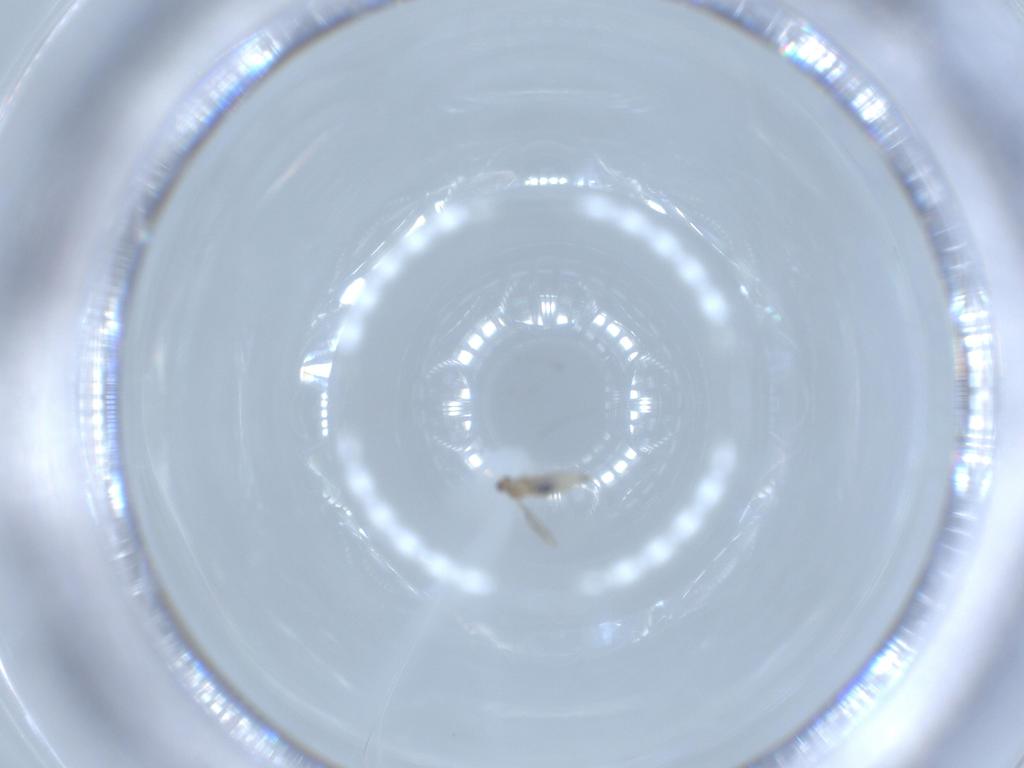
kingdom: Animalia
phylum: Arthropoda
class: Insecta
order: Diptera
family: Cecidomyiidae
